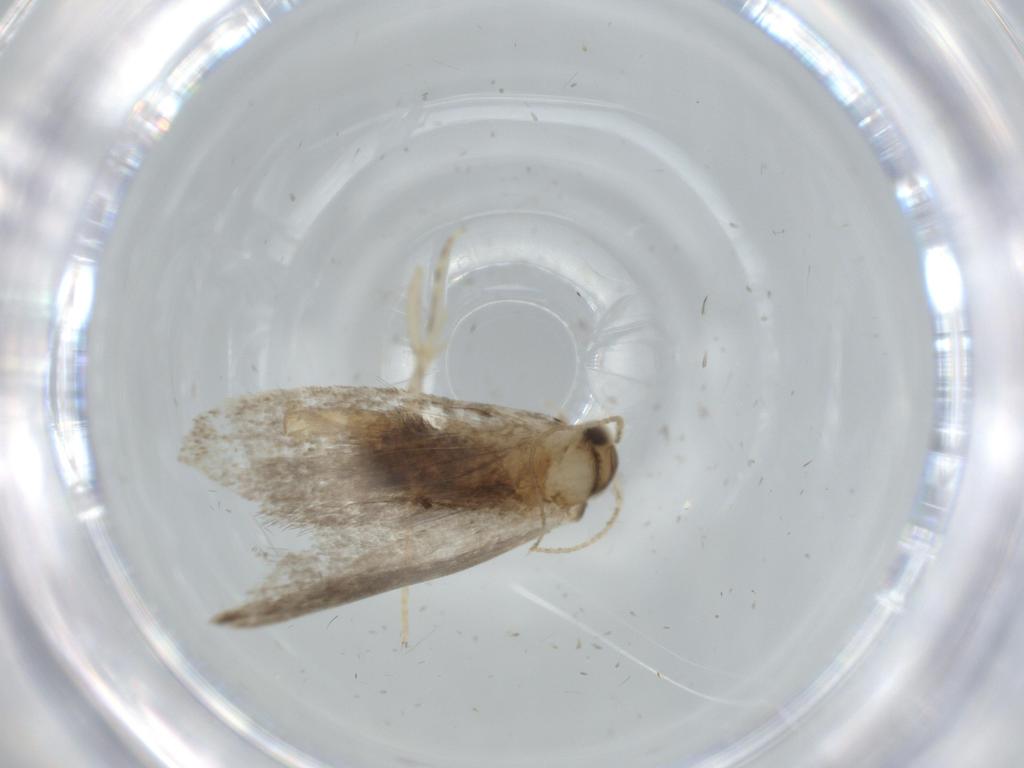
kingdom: Animalia
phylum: Arthropoda
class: Insecta
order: Lepidoptera
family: Tineidae
